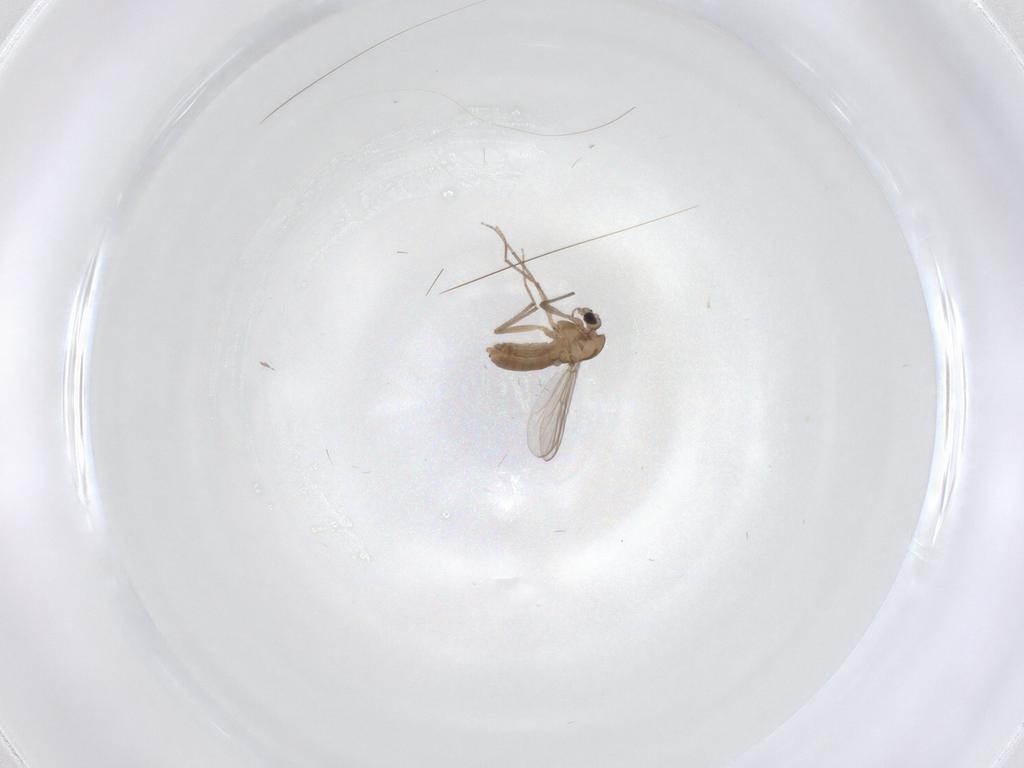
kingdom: Animalia
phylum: Arthropoda
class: Insecta
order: Diptera
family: Chironomidae
